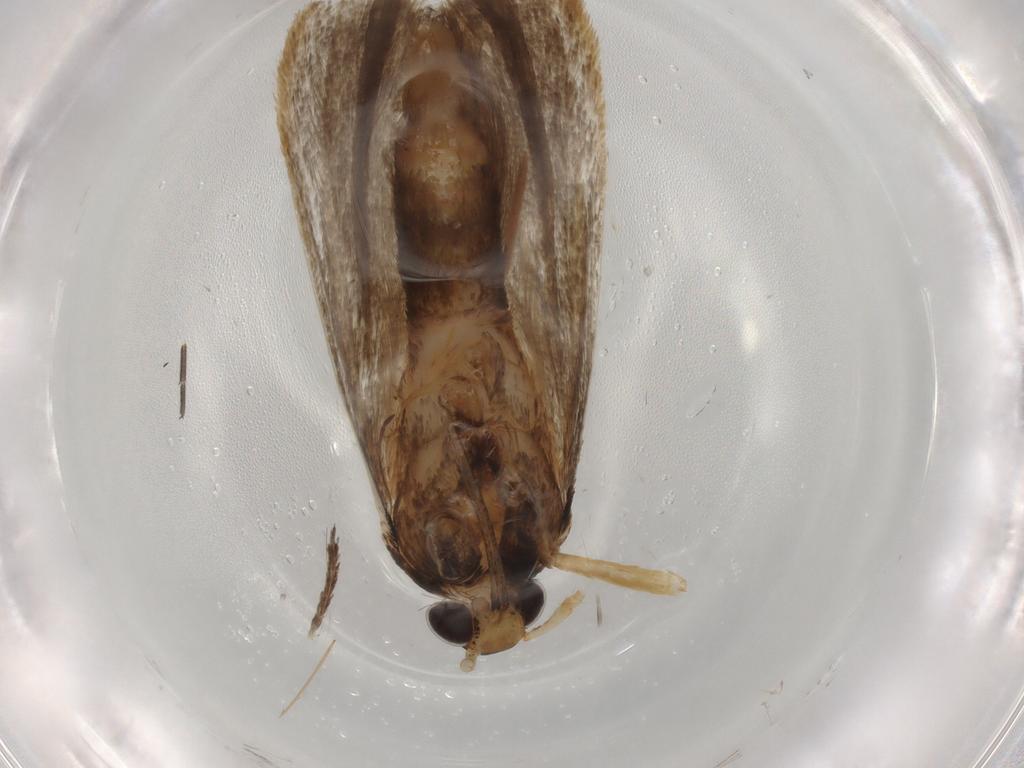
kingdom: Animalia
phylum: Arthropoda
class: Insecta
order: Lepidoptera
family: Lecithoceridae
